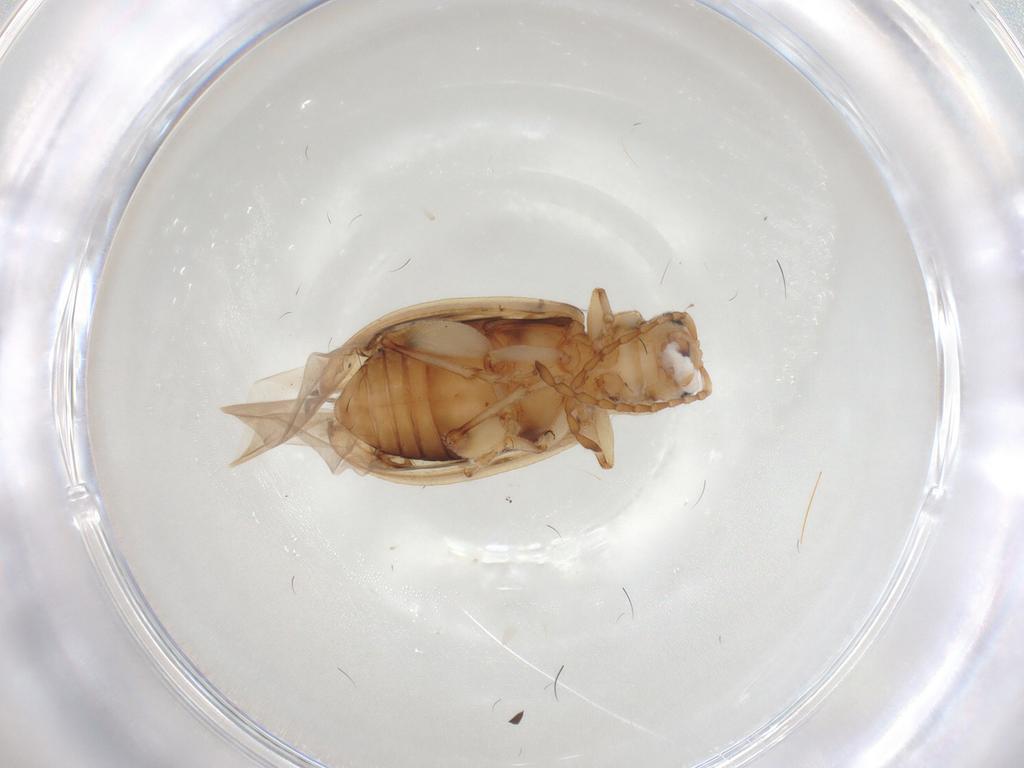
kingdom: Animalia
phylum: Arthropoda
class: Insecta
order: Coleoptera
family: Chrysomelidae
